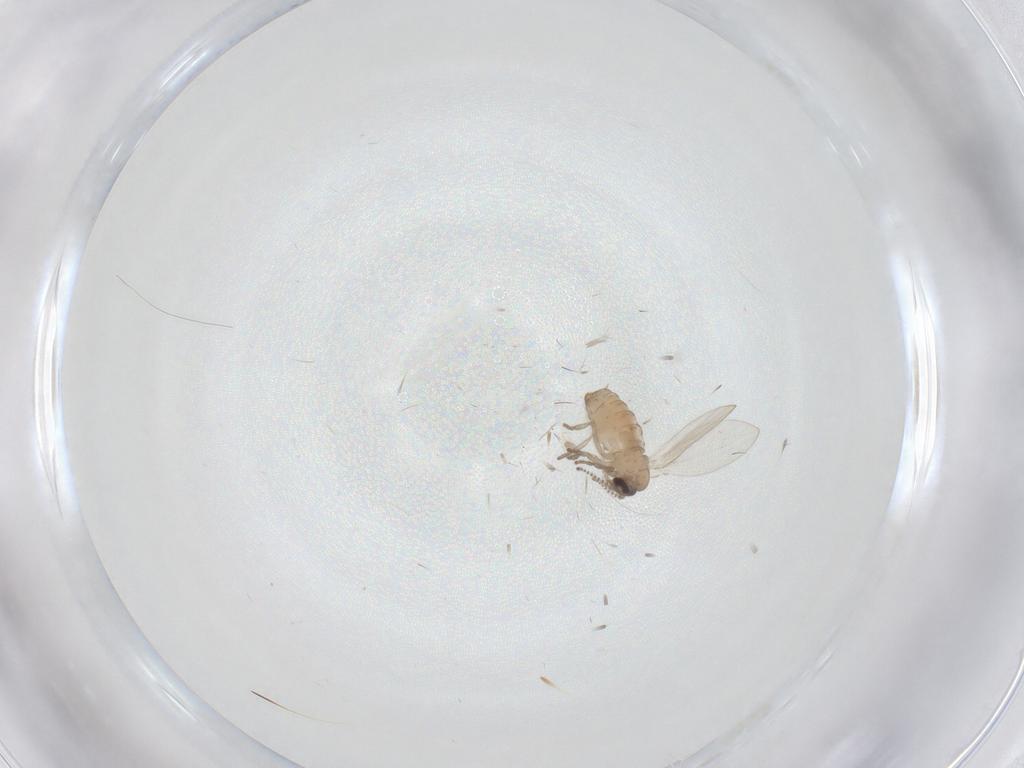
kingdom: Animalia
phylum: Arthropoda
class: Insecta
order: Diptera
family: Psychodidae
